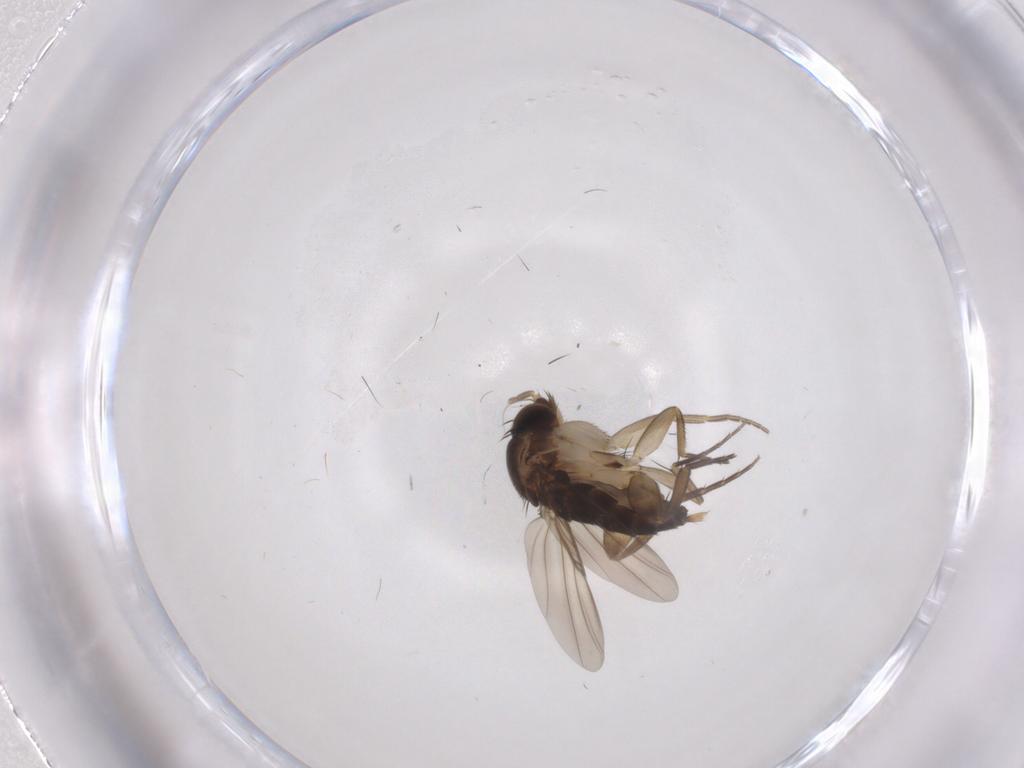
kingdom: Animalia
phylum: Arthropoda
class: Insecta
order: Diptera
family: Phoridae
